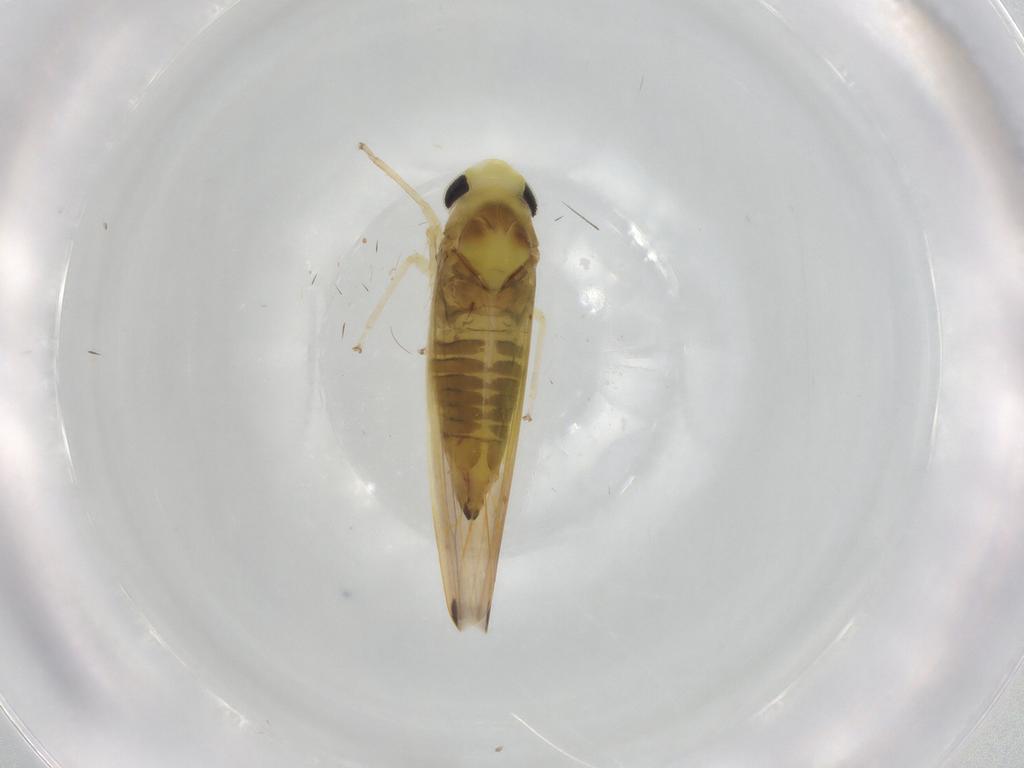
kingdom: Animalia
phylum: Arthropoda
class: Insecta
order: Hemiptera
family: Cicadellidae
